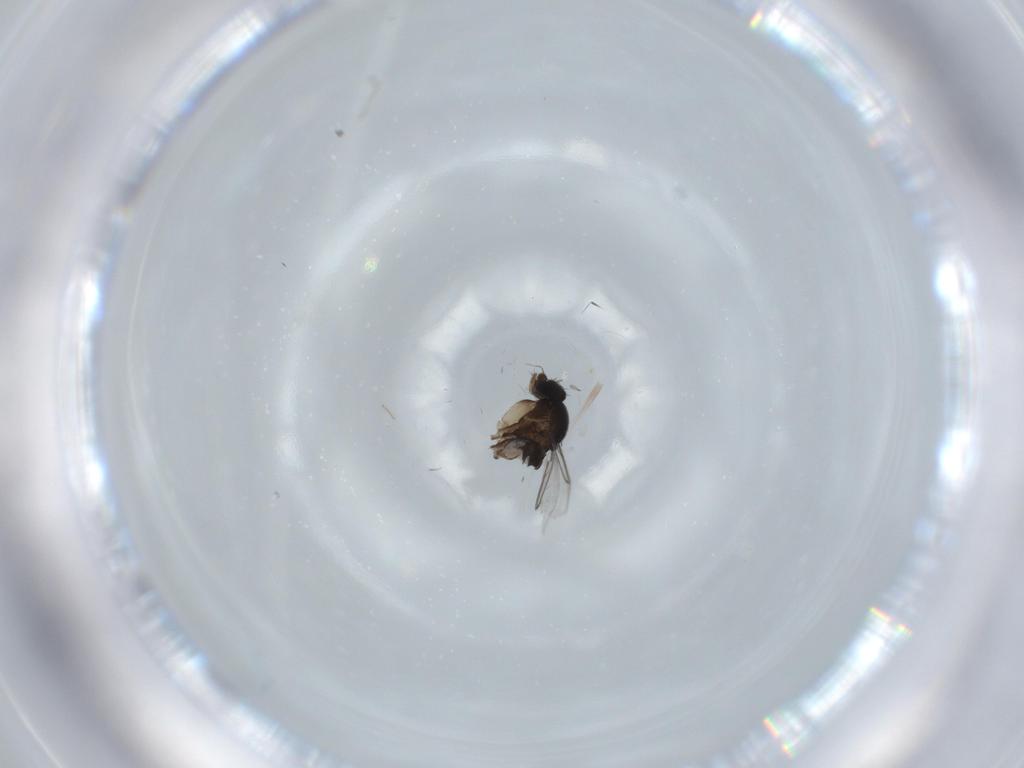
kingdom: Animalia
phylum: Arthropoda
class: Insecta
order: Diptera
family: Phoridae
